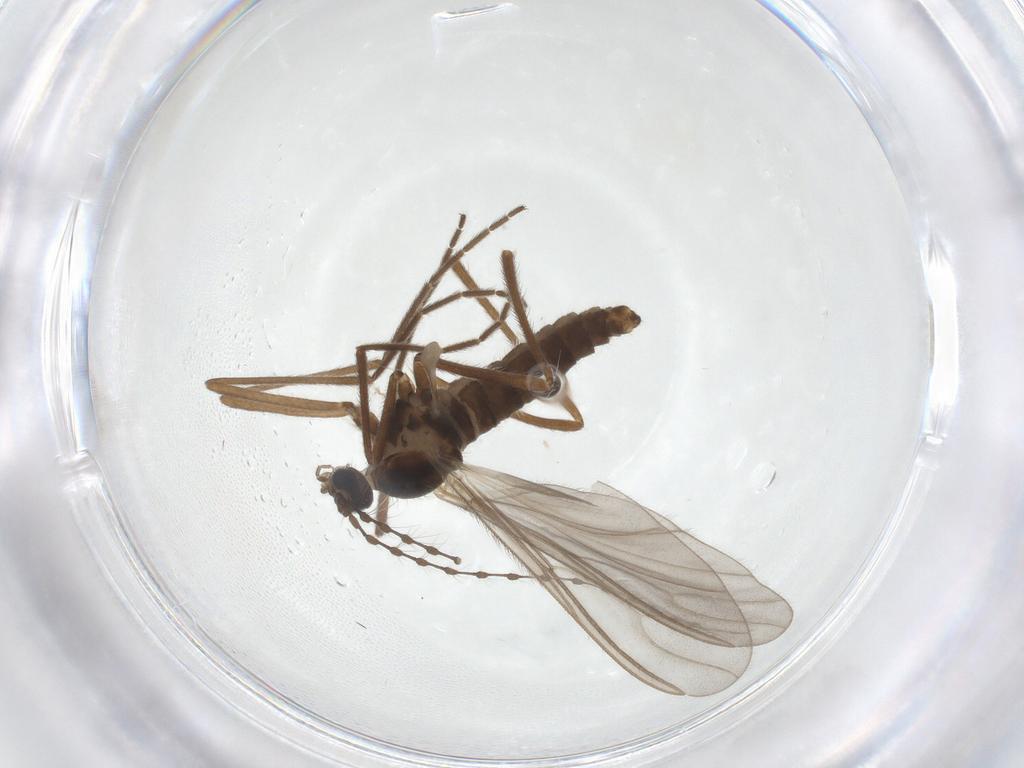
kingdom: Animalia
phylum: Arthropoda
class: Insecta
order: Diptera
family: Cecidomyiidae
